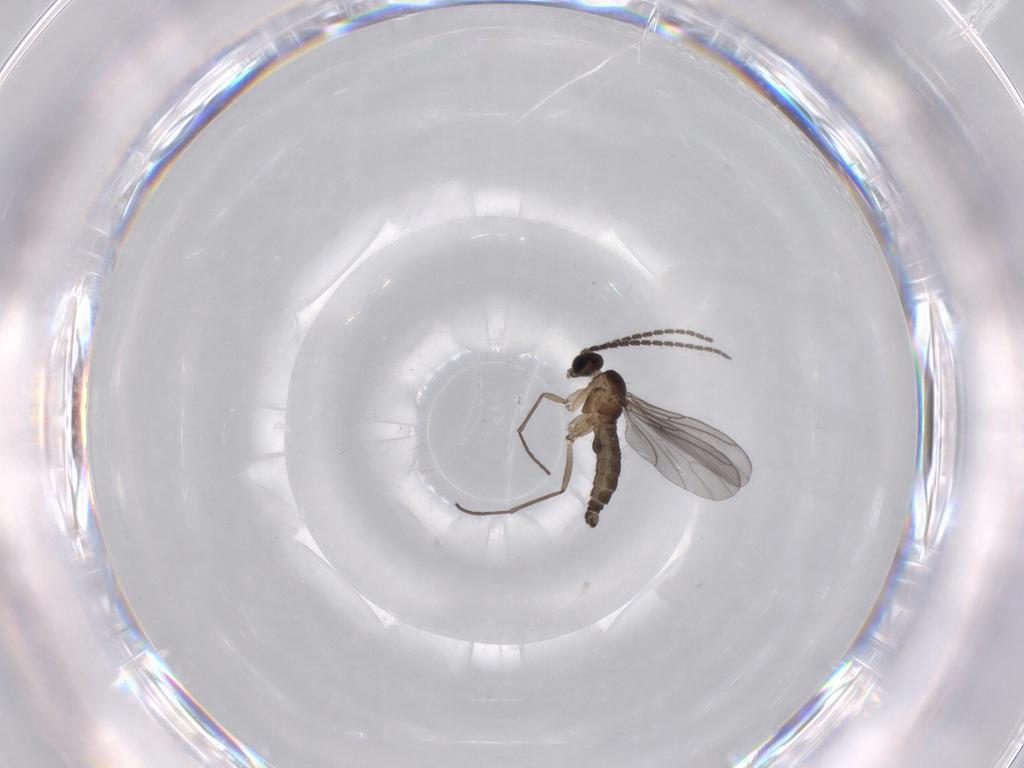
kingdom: Animalia
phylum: Arthropoda
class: Insecta
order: Diptera
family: Sciaridae
